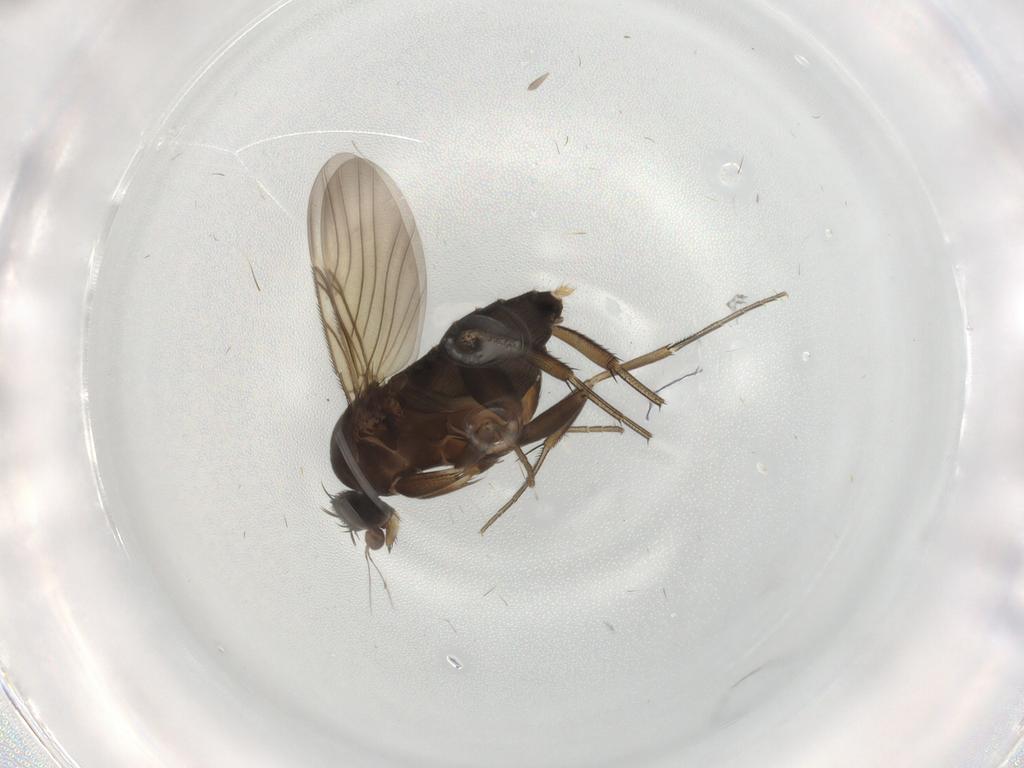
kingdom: Animalia
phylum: Arthropoda
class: Insecta
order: Diptera
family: Phoridae
